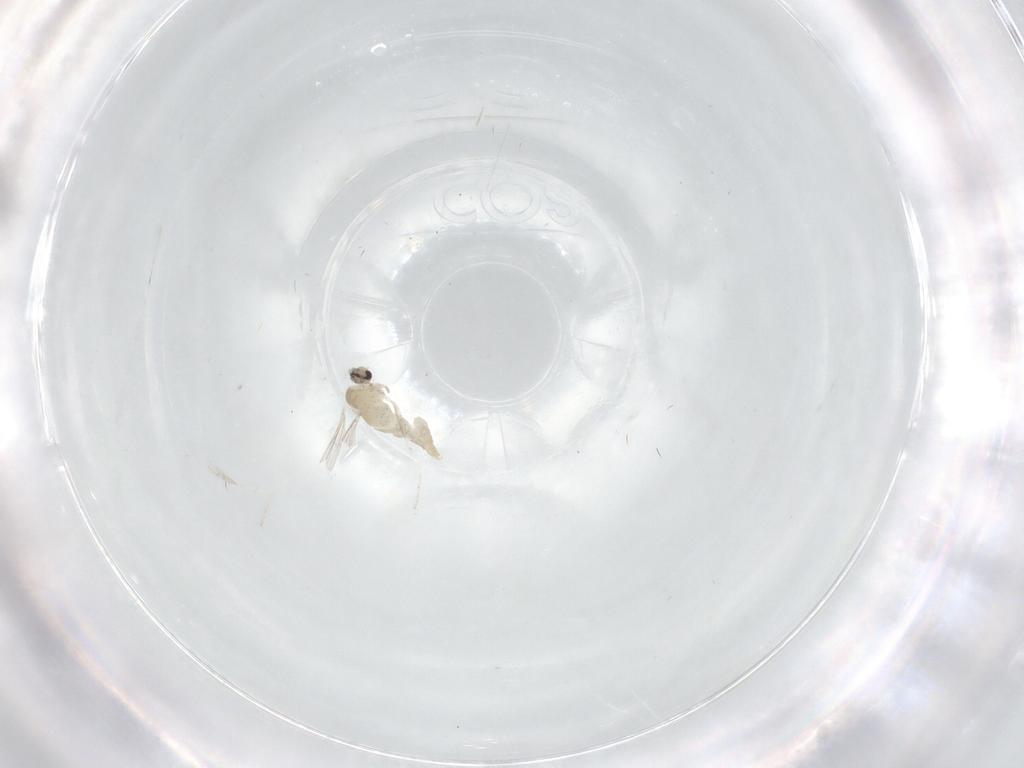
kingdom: Animalia
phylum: Arthropoda
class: Insecta
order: Diptera
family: Cecidomyiidae
